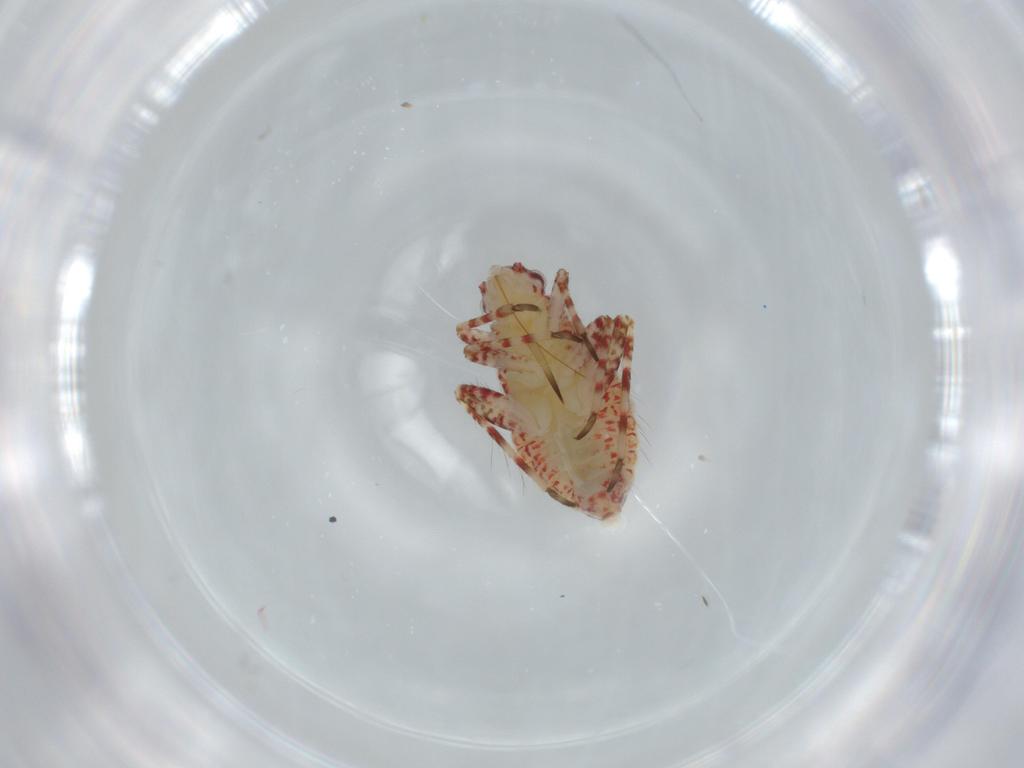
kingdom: Animalia
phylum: Arthropoda
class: Insecta
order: Hemiptera
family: Miridae
